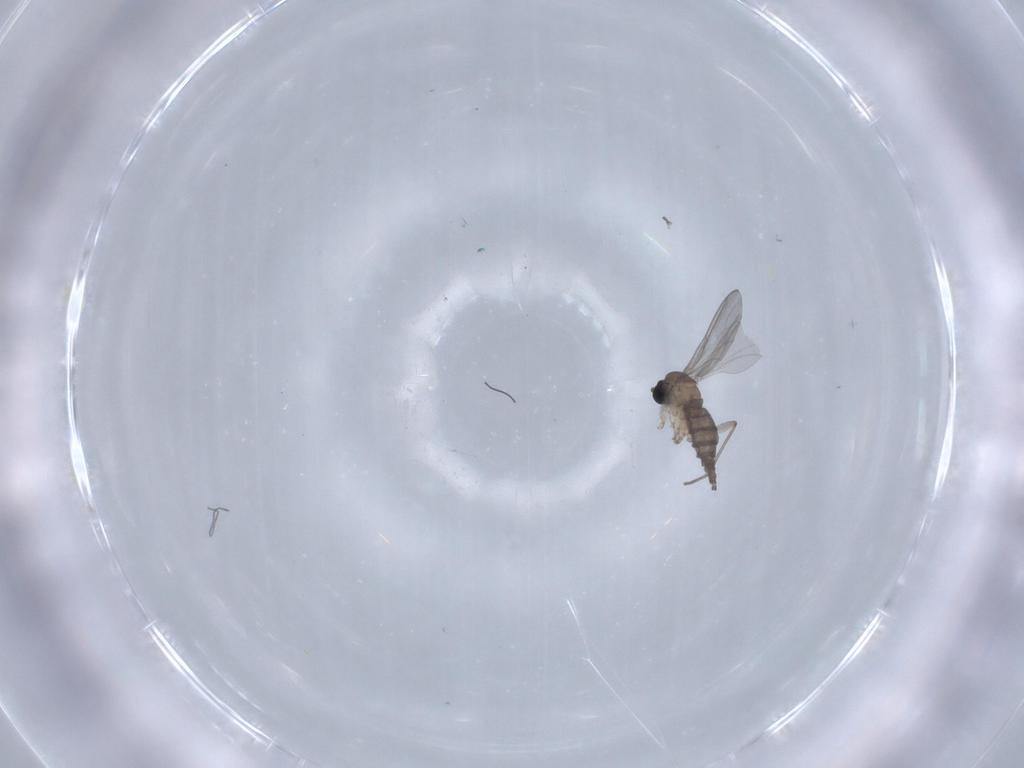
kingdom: Animalia
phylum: Arthropoda
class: Insecta
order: Diptera
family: Sciaridae
